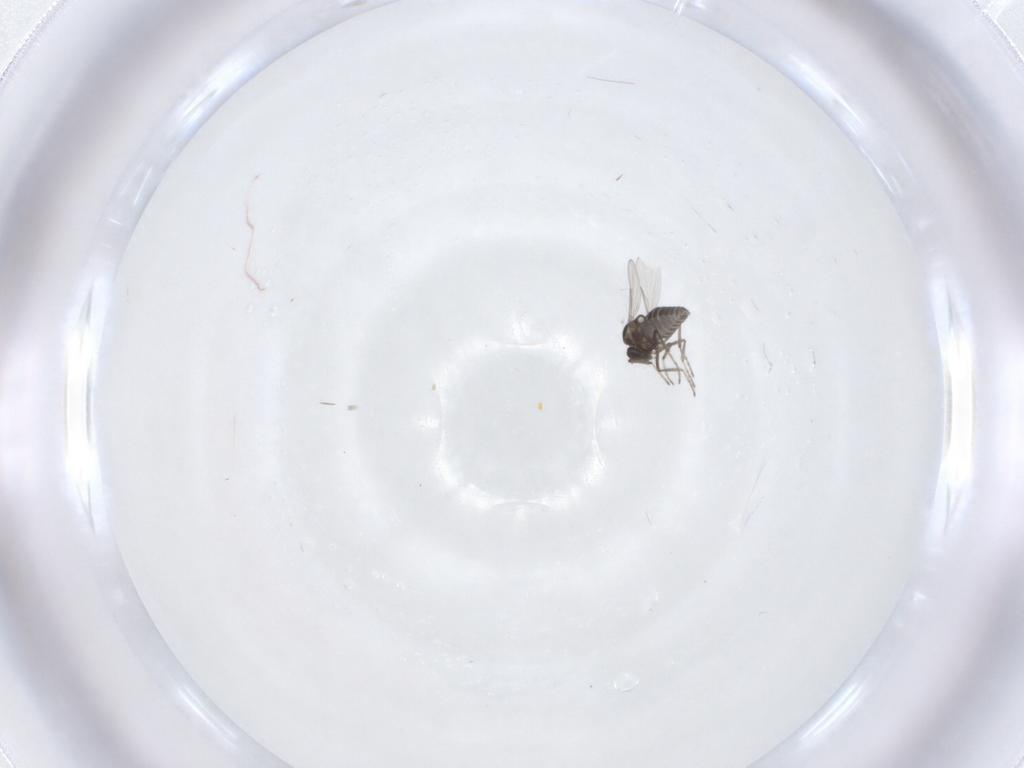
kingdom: Animalia
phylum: Arthropoda
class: Insecta
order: Diptera
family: Ceratopogonidae
